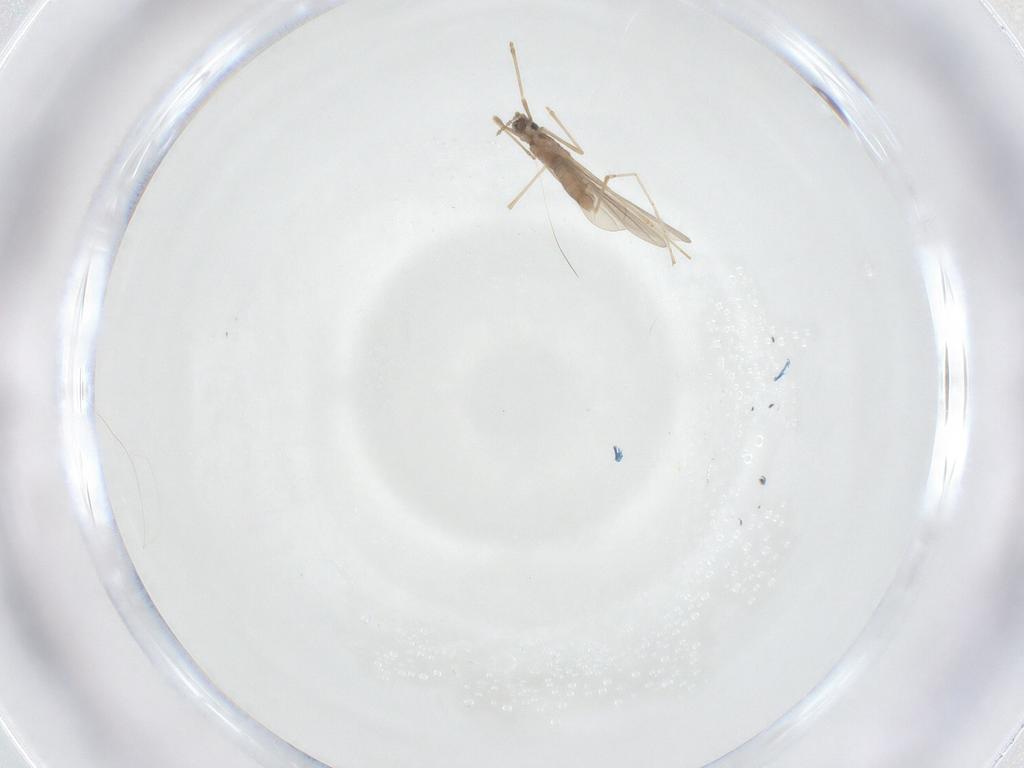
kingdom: Animalia
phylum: Arthropoda
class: Insecta
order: Diptera
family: Cecidomyiidae
